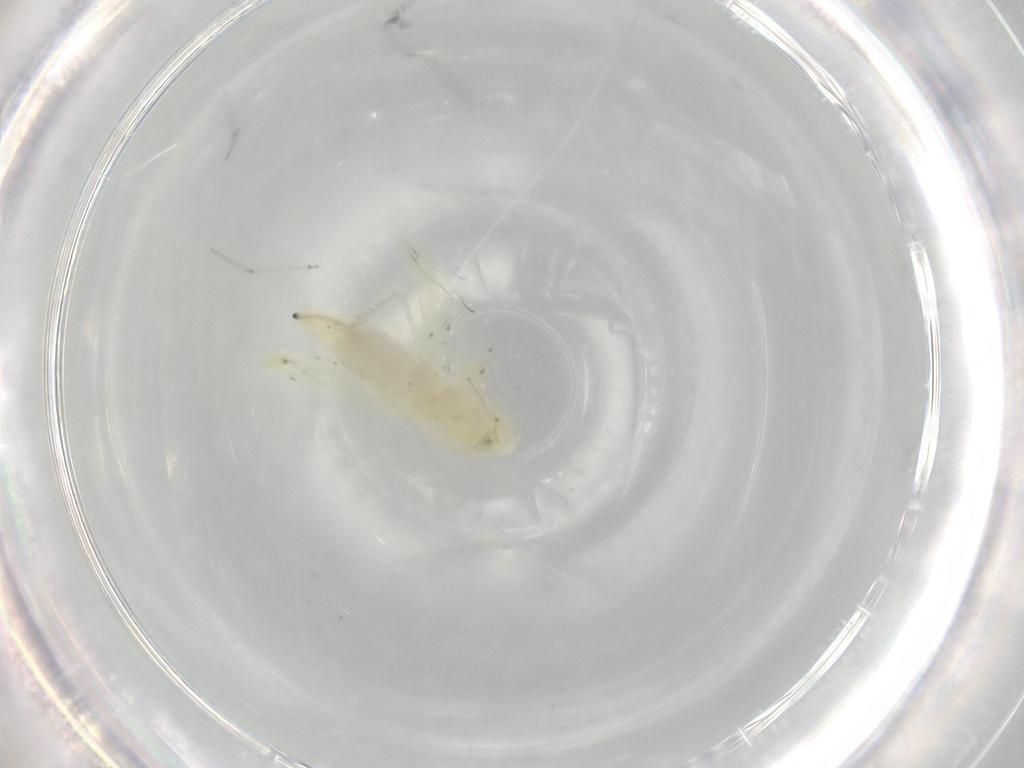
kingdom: Animalia
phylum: Arthropoda
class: Insecta
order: Hemiptera
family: Cicadellidae
